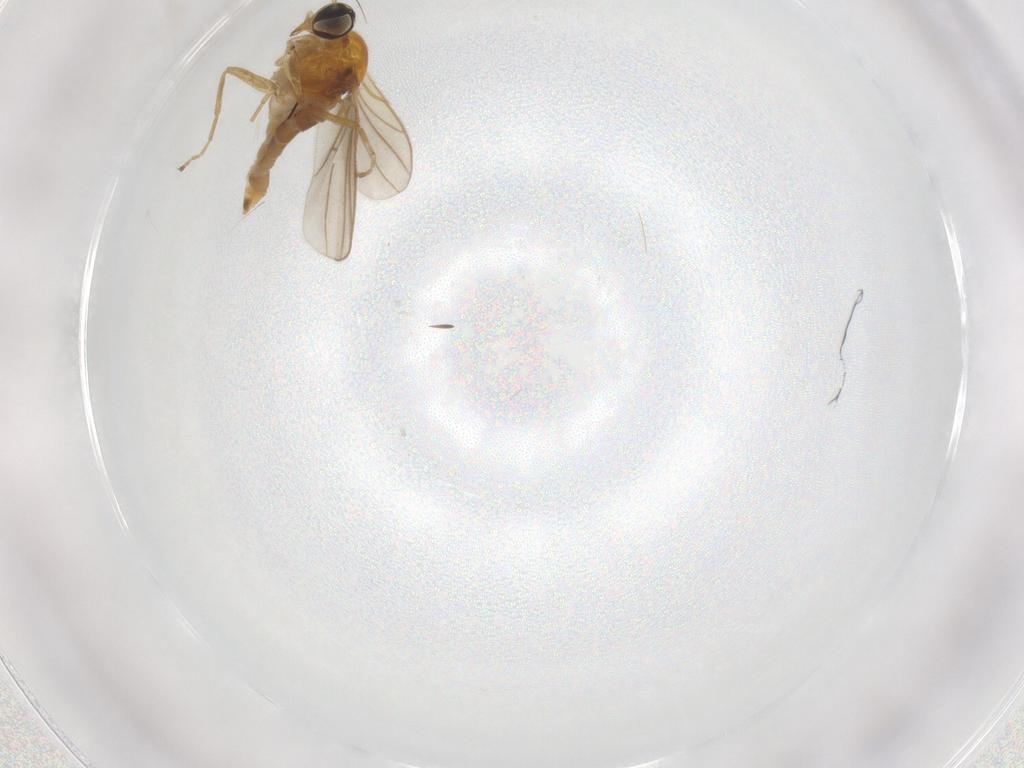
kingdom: Animalia
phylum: Arthropoda
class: Insecta
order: Diptera
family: Hybotidae
